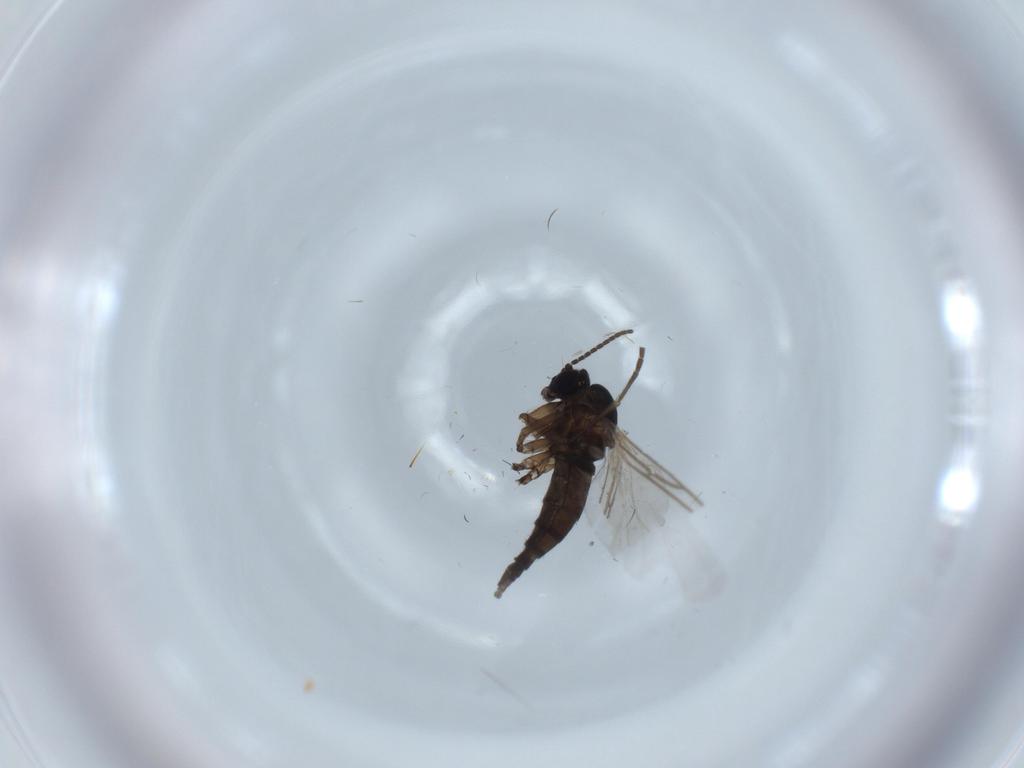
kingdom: Animalia
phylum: Arthropoda
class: Insecta
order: Diptera
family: Sciaridae
